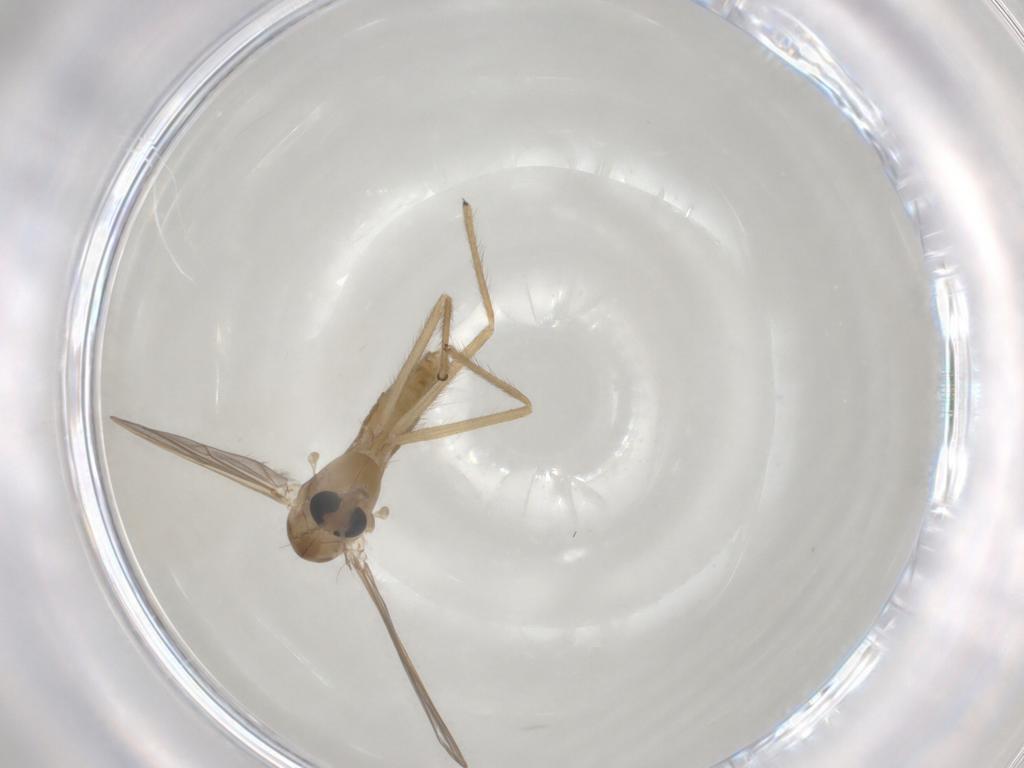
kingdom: Animalia
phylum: Arthropoda
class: Insecta
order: Diptera
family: Chironomidae
